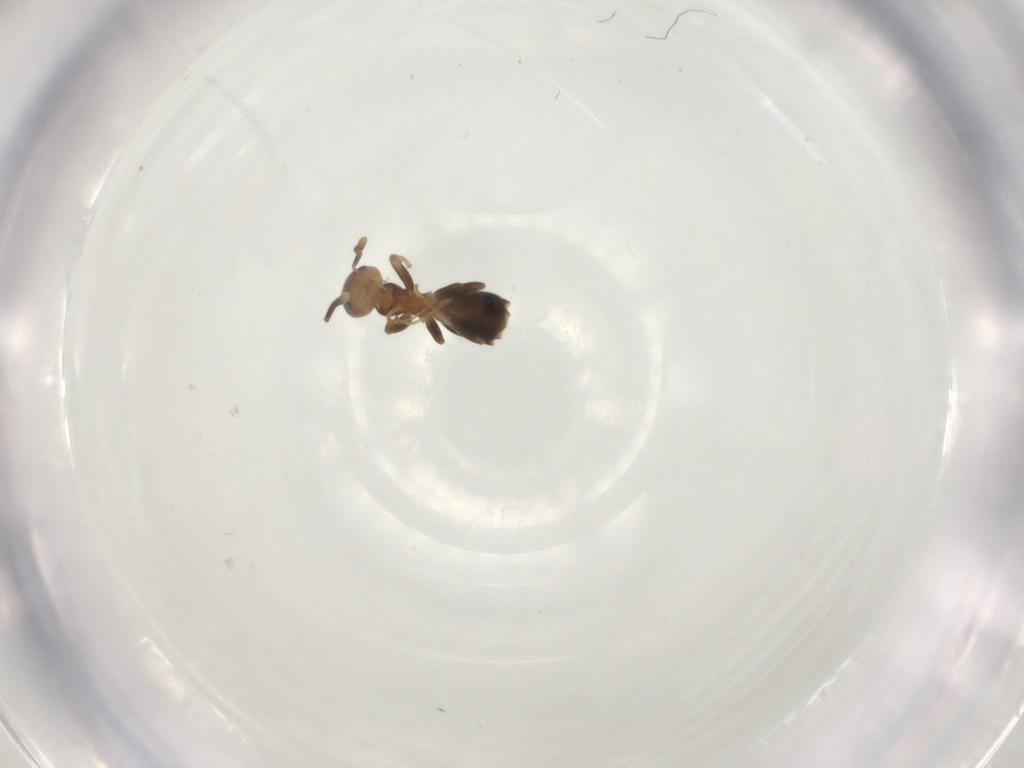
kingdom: Animalia
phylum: Arthropoda
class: Insecta
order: Hymenoptera
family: Formicidae
